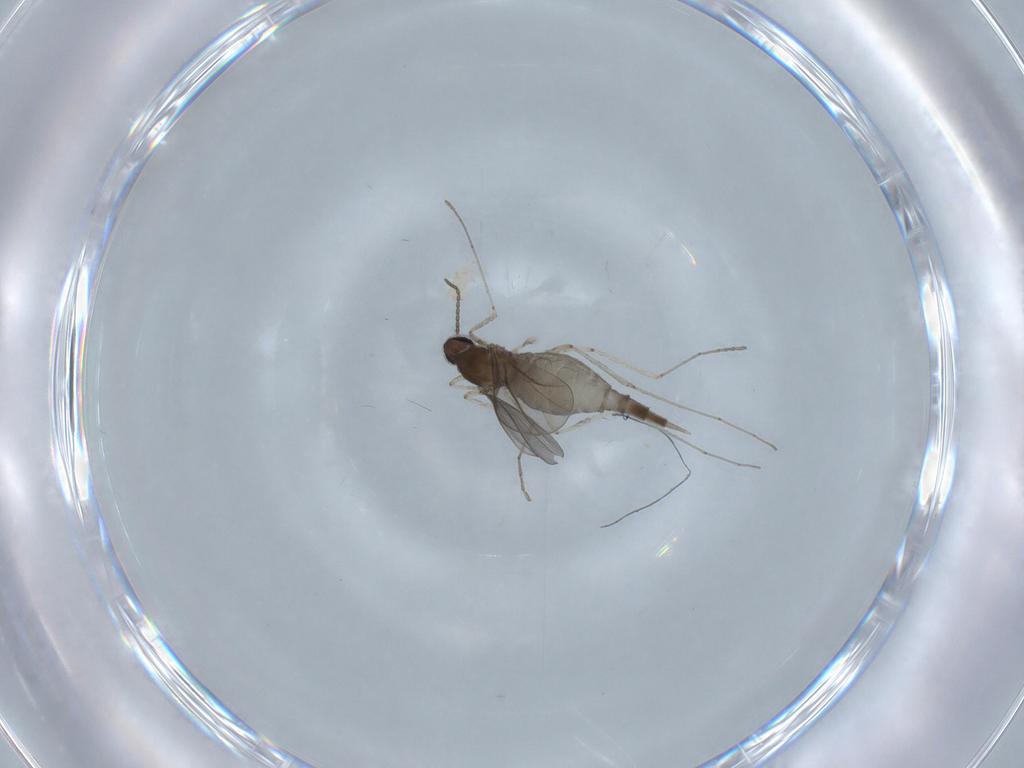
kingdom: Animalia
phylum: Arthropoda
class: Insecta
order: Diptera
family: Cecidomyiidae
